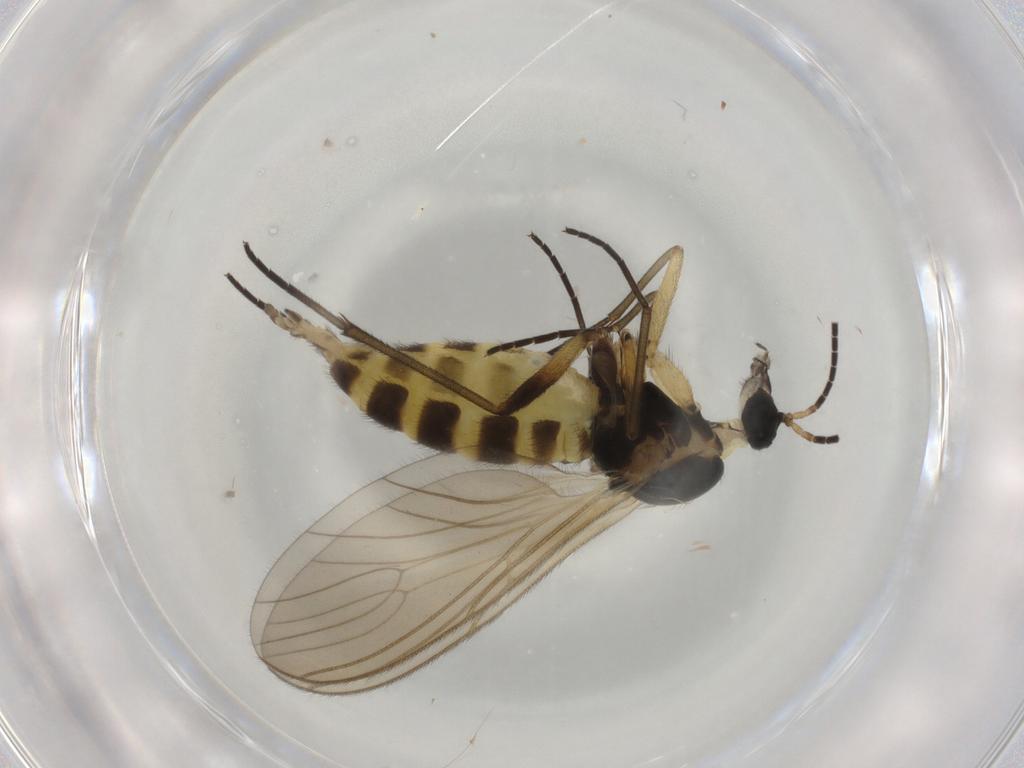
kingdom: Animalia
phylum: Arthropoda
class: Insecta
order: Diptera
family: Sciaridae
